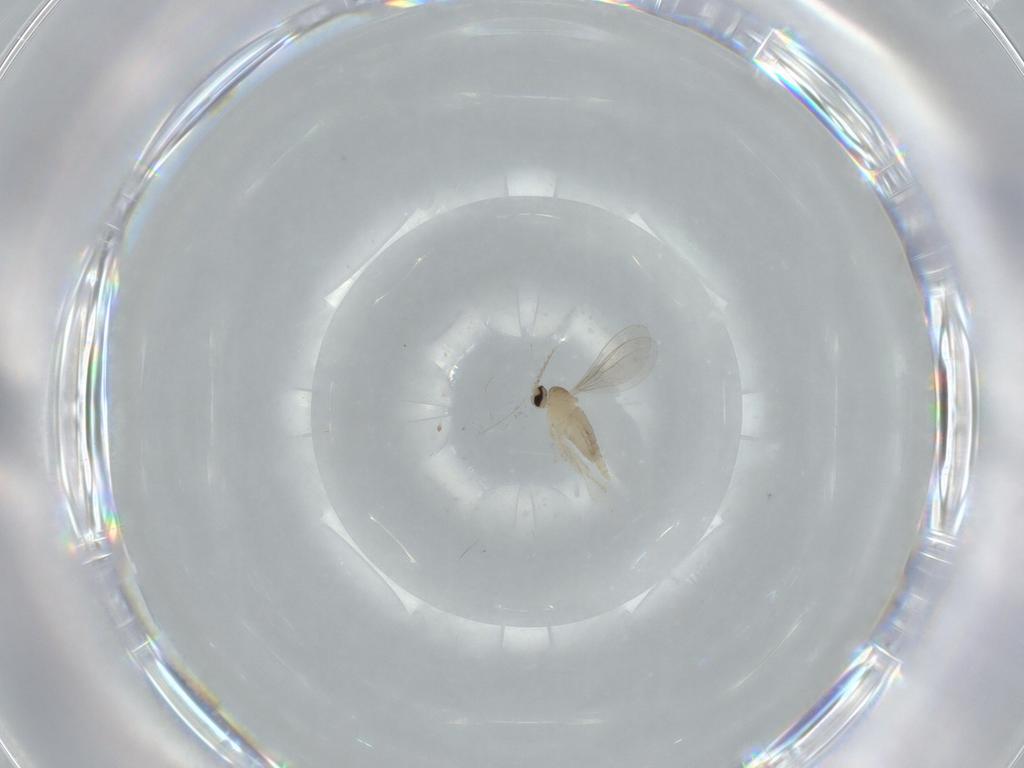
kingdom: Animalia
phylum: Arthropoda
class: Insecta
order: Diptera
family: Cecidomyiidae
